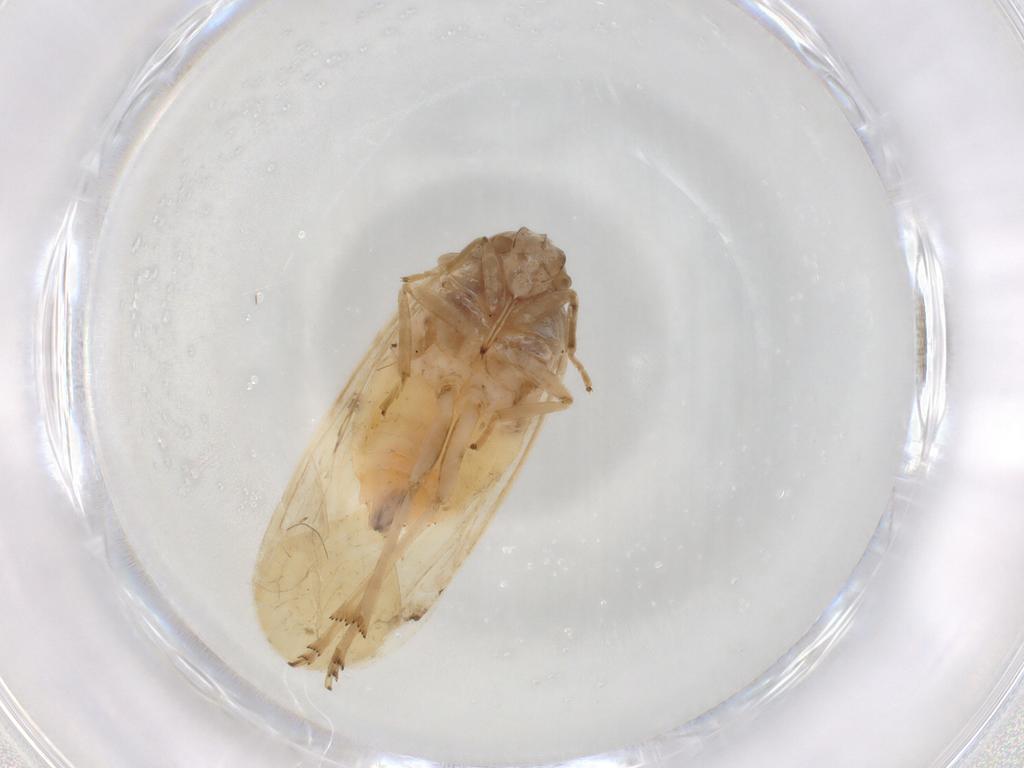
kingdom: Animalia
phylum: Arthropoda
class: Insecta
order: Hemiptera
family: Cicadellidae
